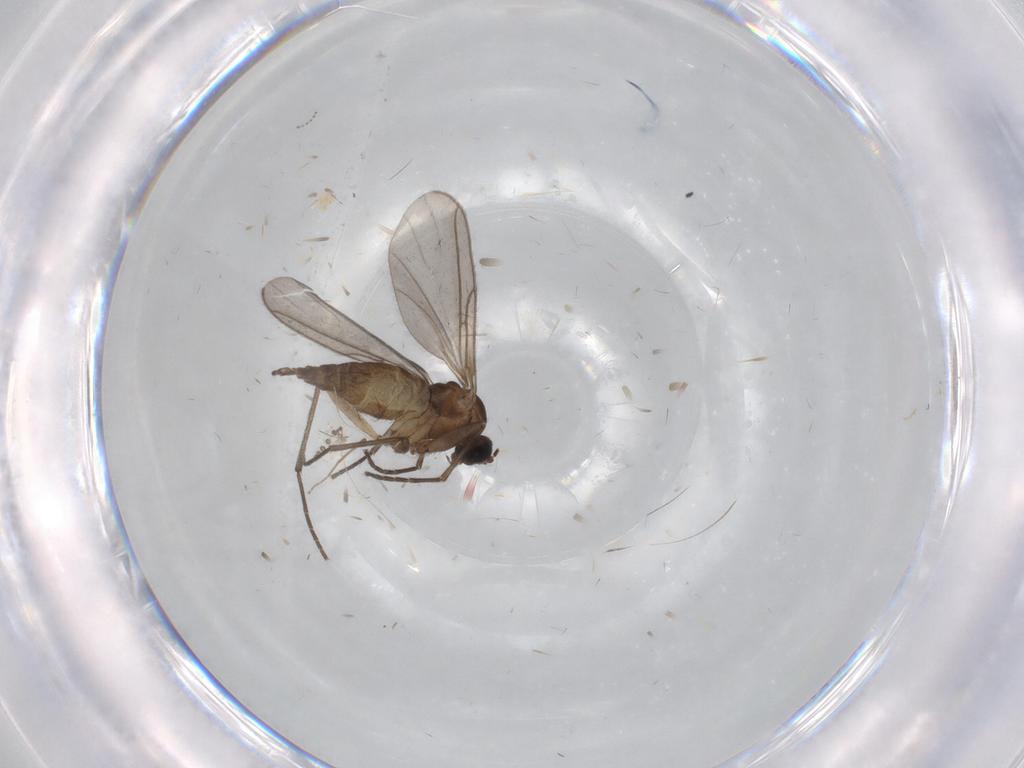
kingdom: Animalia
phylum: Arthropoda
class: Insecta
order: Diptera
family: Sciaridae
